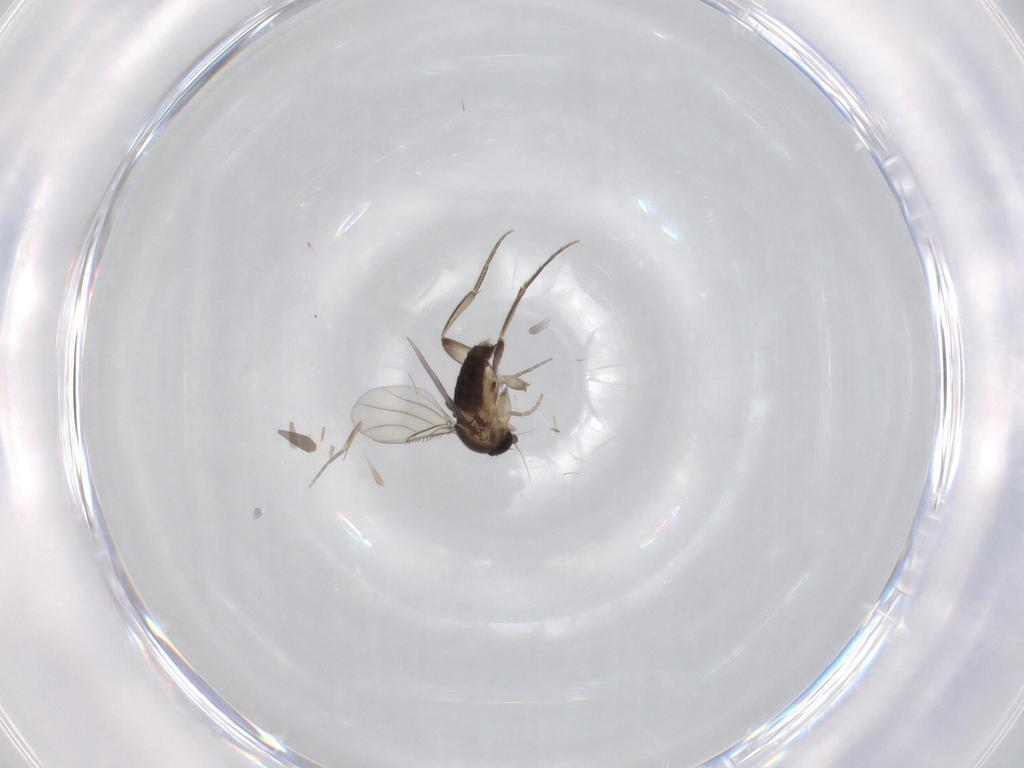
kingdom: Animalia
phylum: Arthropoda
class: Insecta
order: Diptera
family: Phoridae
